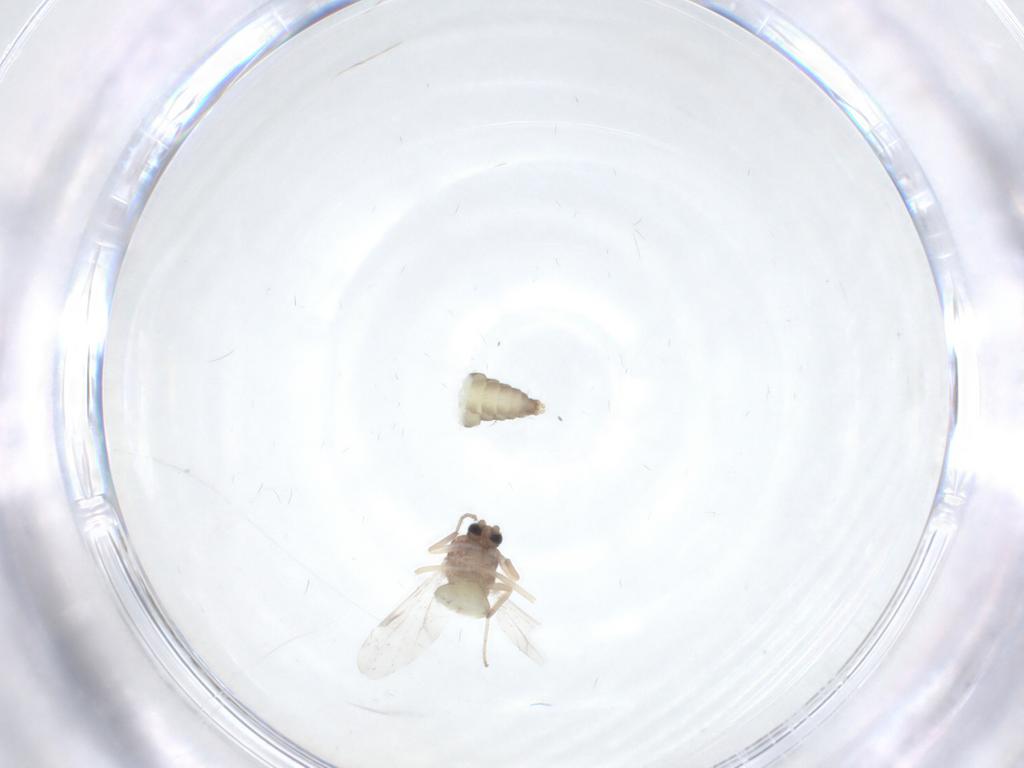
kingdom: Animalia
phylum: Arthropoda
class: Insecta
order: Diptera
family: Ceratopogonidae
